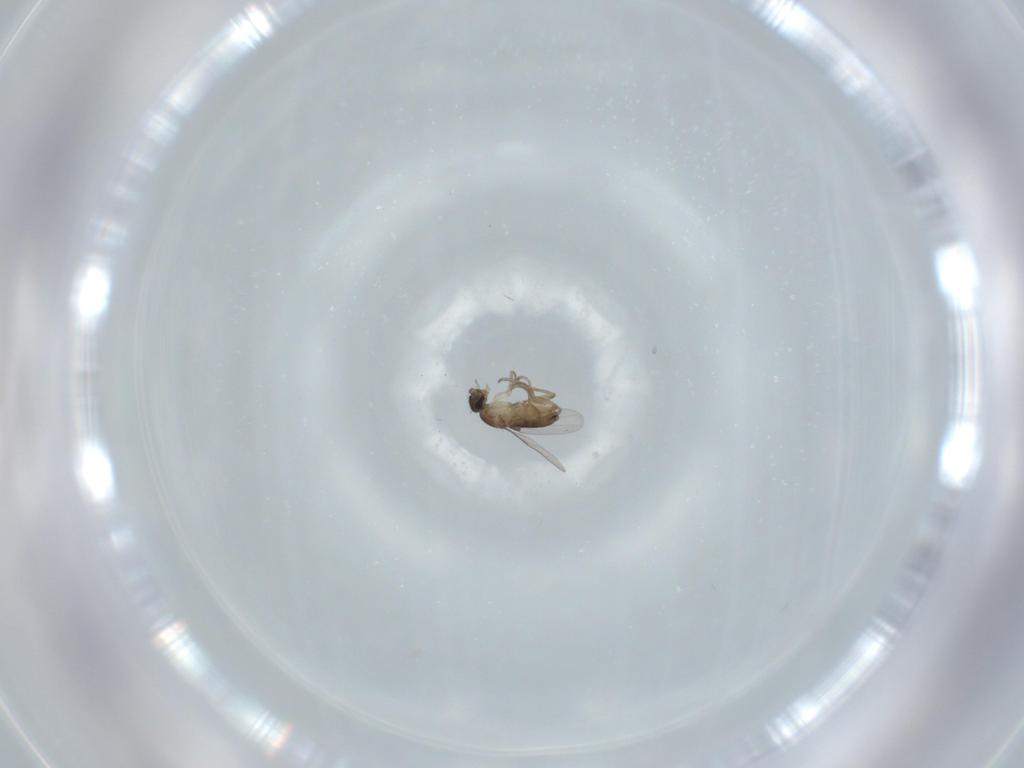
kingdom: Animalia
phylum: Arthropoda
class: Insecta
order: Diptera
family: Phoridae
